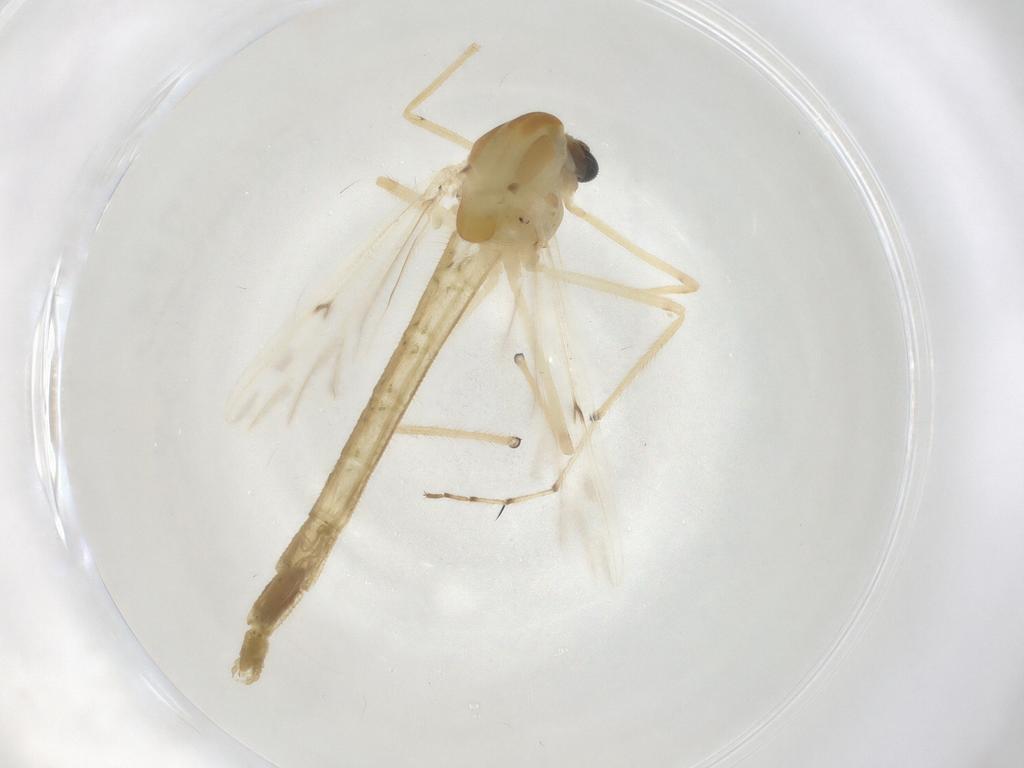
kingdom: Animalia
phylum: Arthropoda
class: Insecta
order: Diptera
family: Chironomidae
